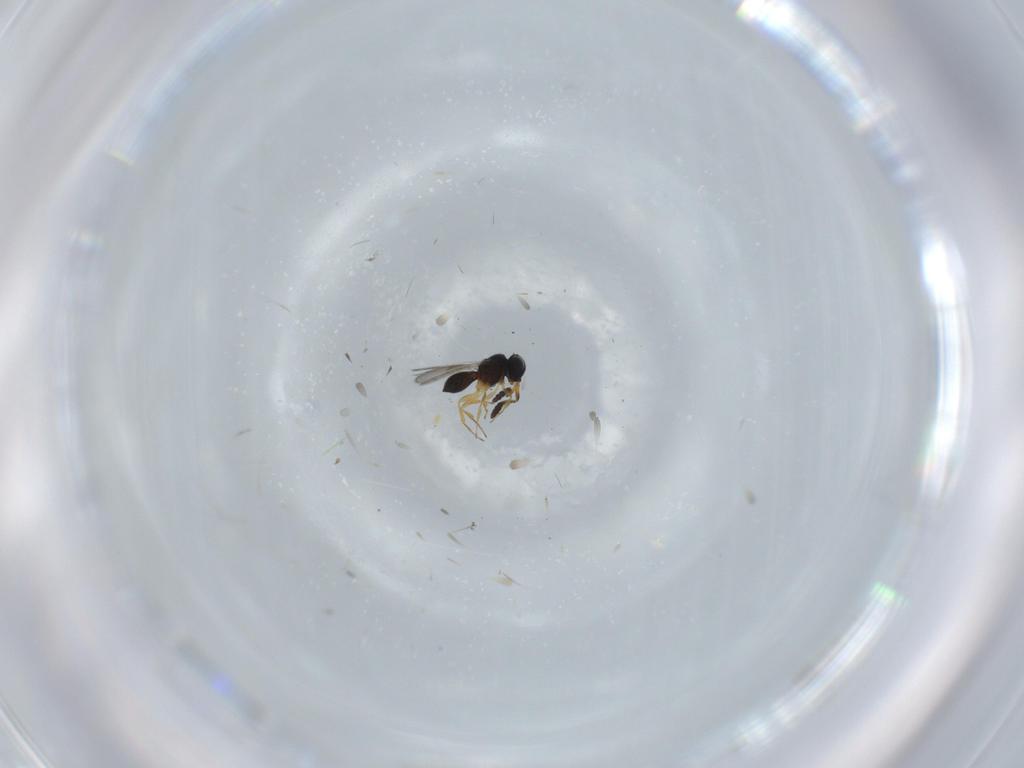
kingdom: Animalia
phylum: Arthropoda
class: Insecta
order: Hymenoptera
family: Scelionidae
